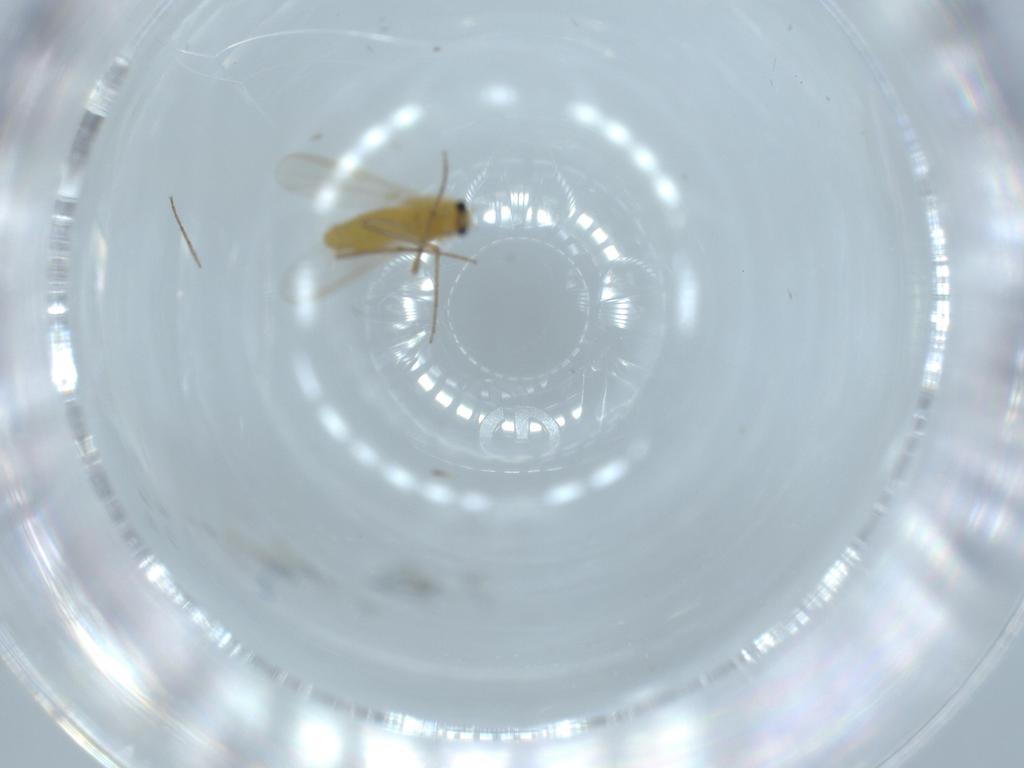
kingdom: Animalia
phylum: Arthropoda
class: Insecta
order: Diptera
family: Chironomidae
